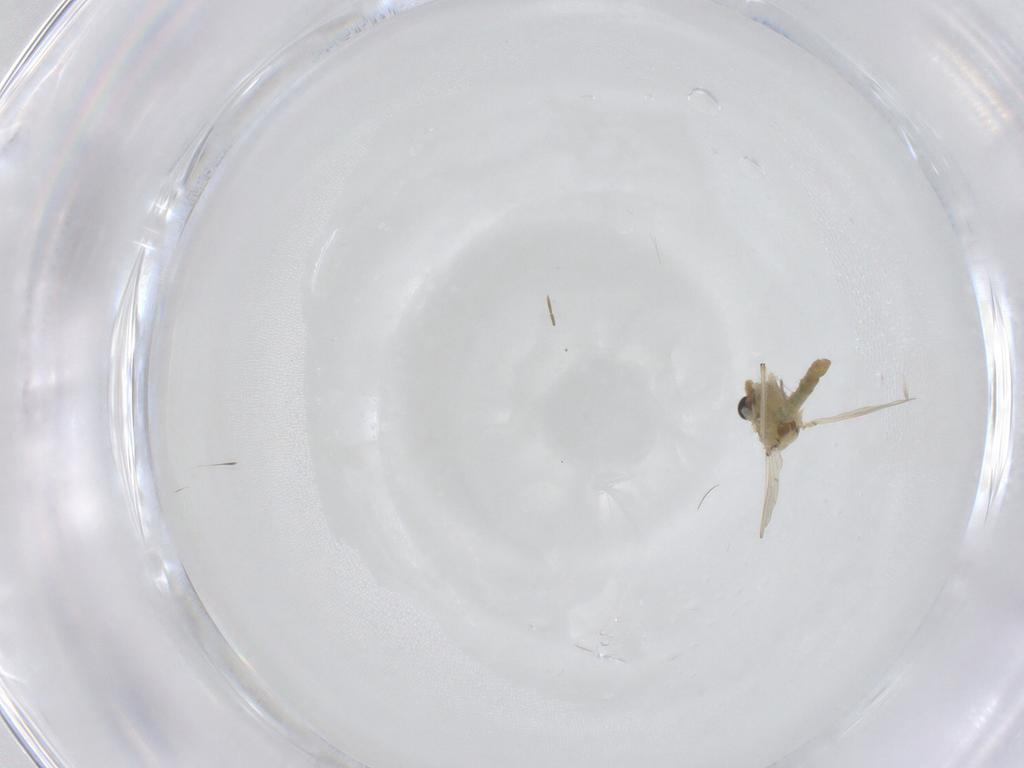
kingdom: Animalia
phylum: Arthropoda
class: Insecta
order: Diptera
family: Chironomidae
